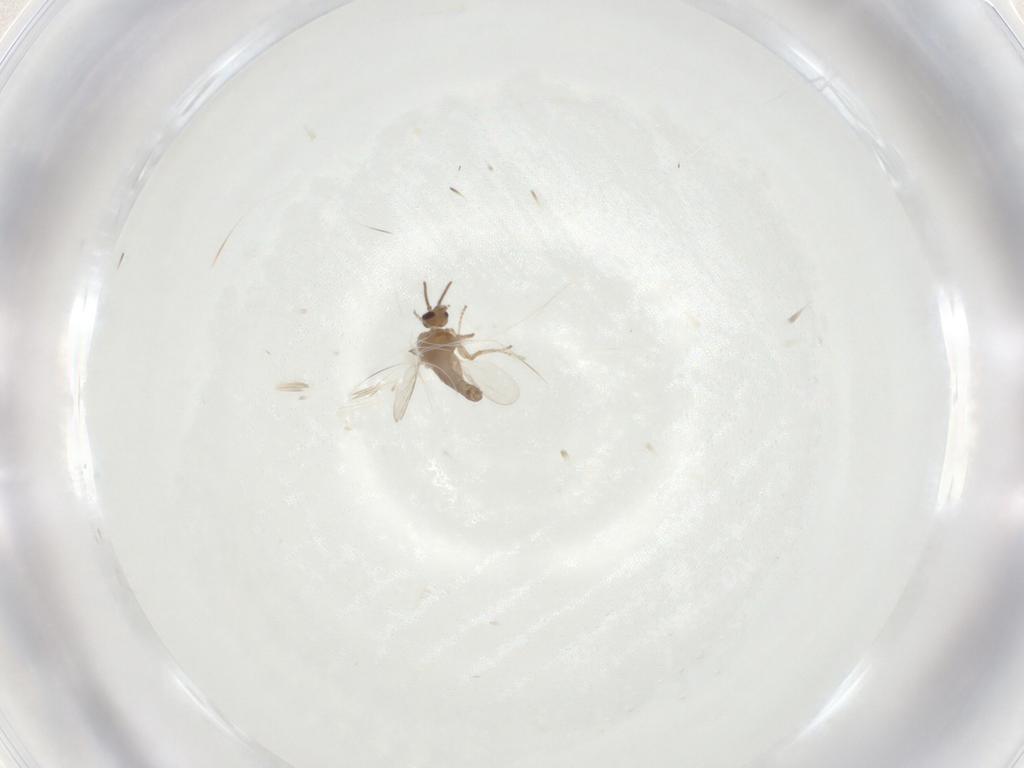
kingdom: Animalia
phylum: Arthropoda
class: Insecta
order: Diptera
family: Ceratopogonidae
